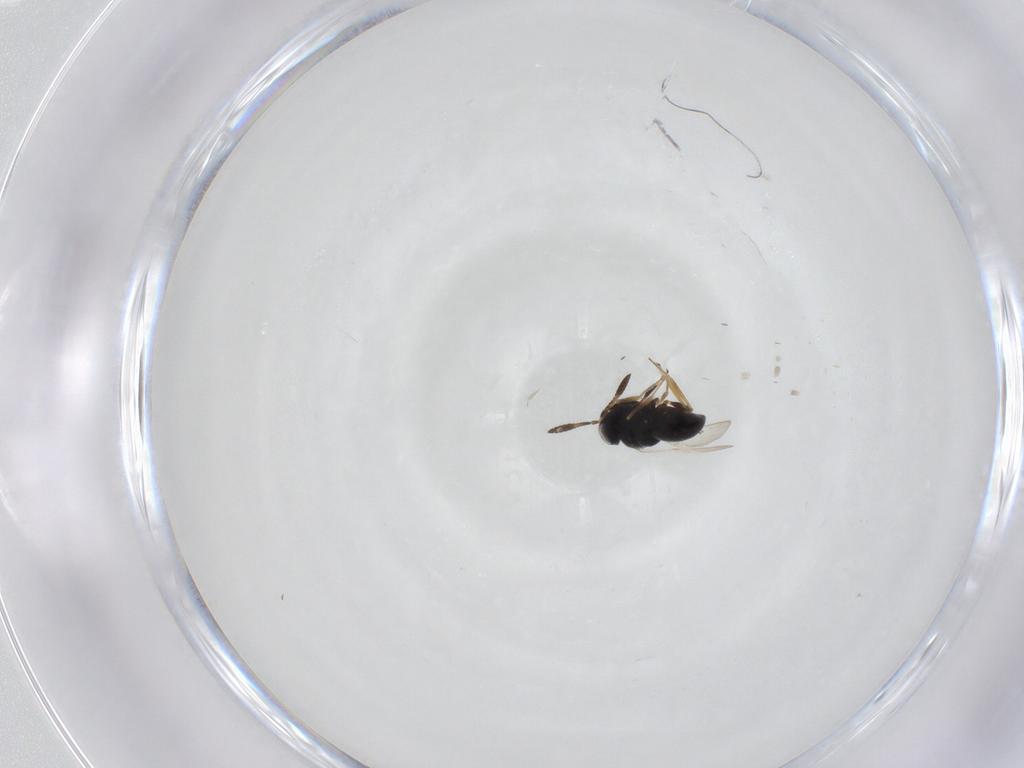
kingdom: Animalia
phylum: Arthropoda
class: Insecta
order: Hymenoptera
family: Scelionidae
